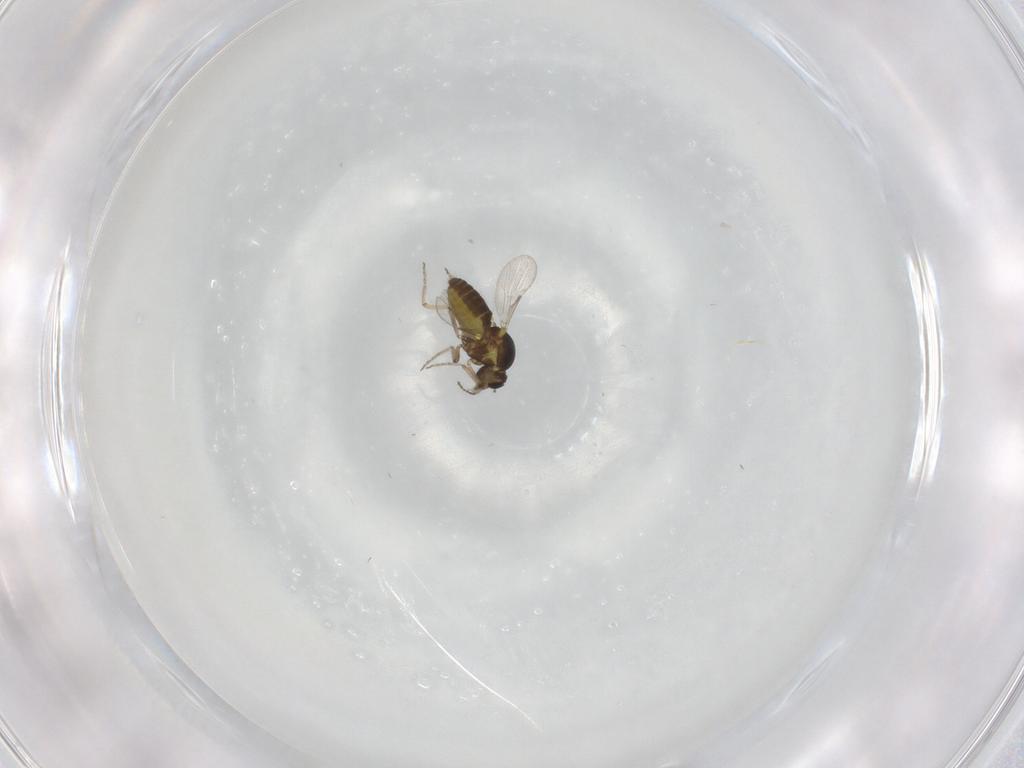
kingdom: Animalia
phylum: Arthropoda
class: Insecta
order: Diptera
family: Ceratopogonidae
